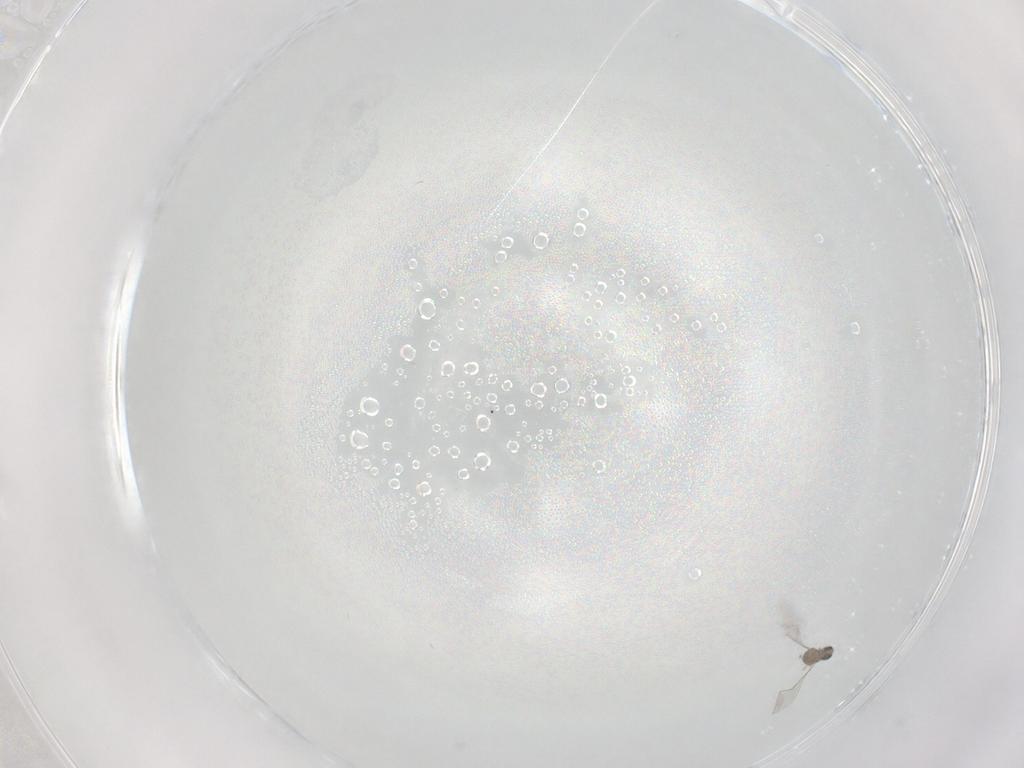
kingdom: Animalia
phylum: Arthropoda
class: Insecta
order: Diptera
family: Cecidomyiidae
